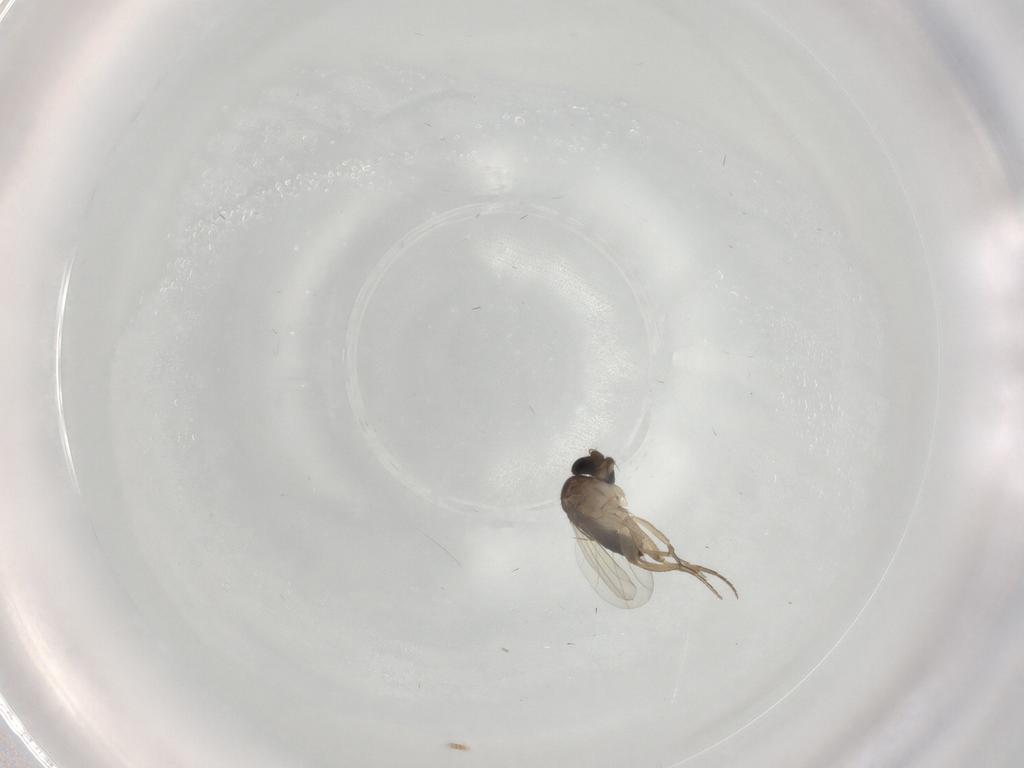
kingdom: Animalia
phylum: Arthropoda
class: Insecta
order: Diptera
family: Phoridae
